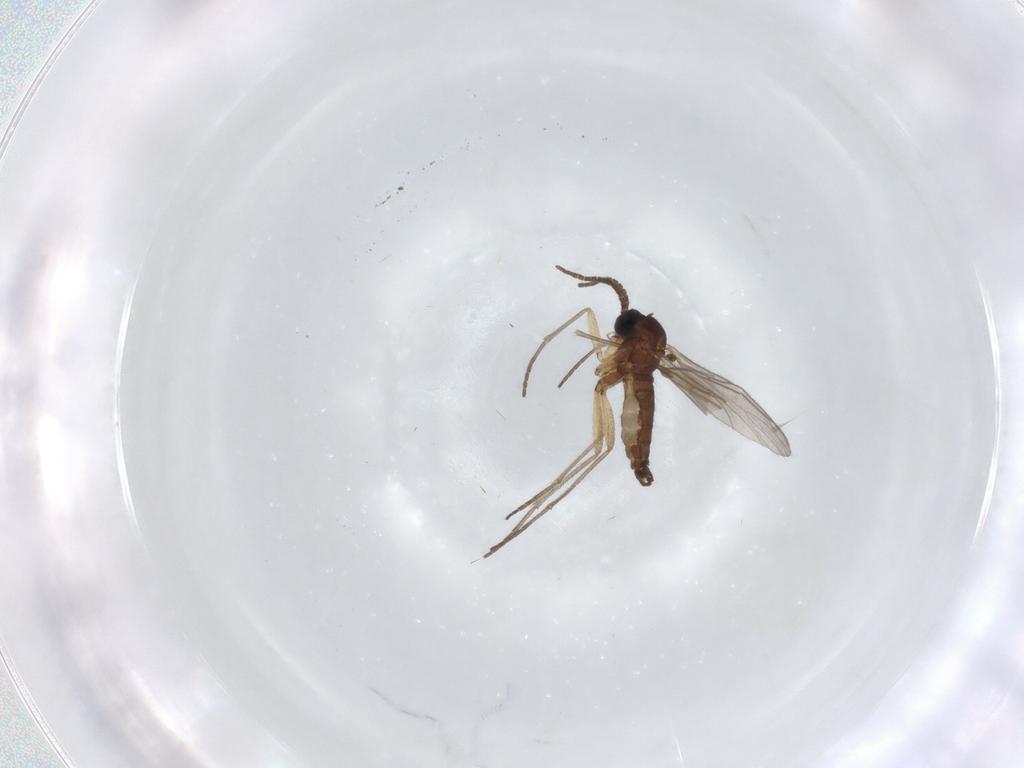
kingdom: Animalia
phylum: Arthropoda
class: Insecta
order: Diptera
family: Sciaridae
